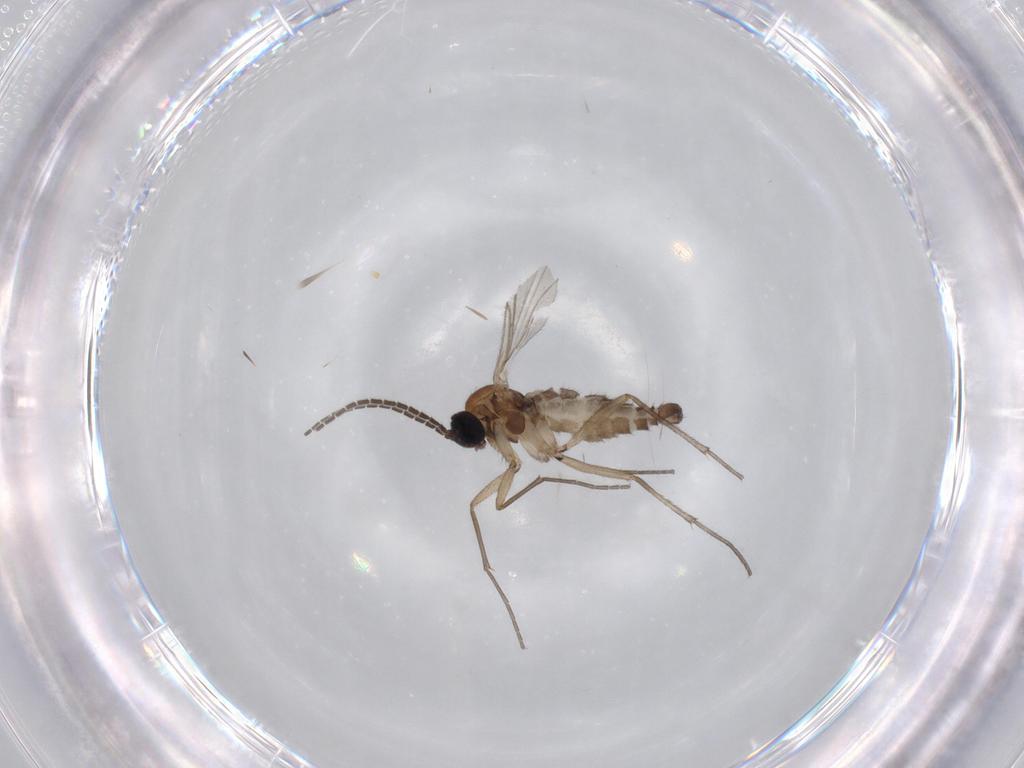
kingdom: Animalia
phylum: Arthropoda
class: Insecta
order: Diptera
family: Sciaridae
